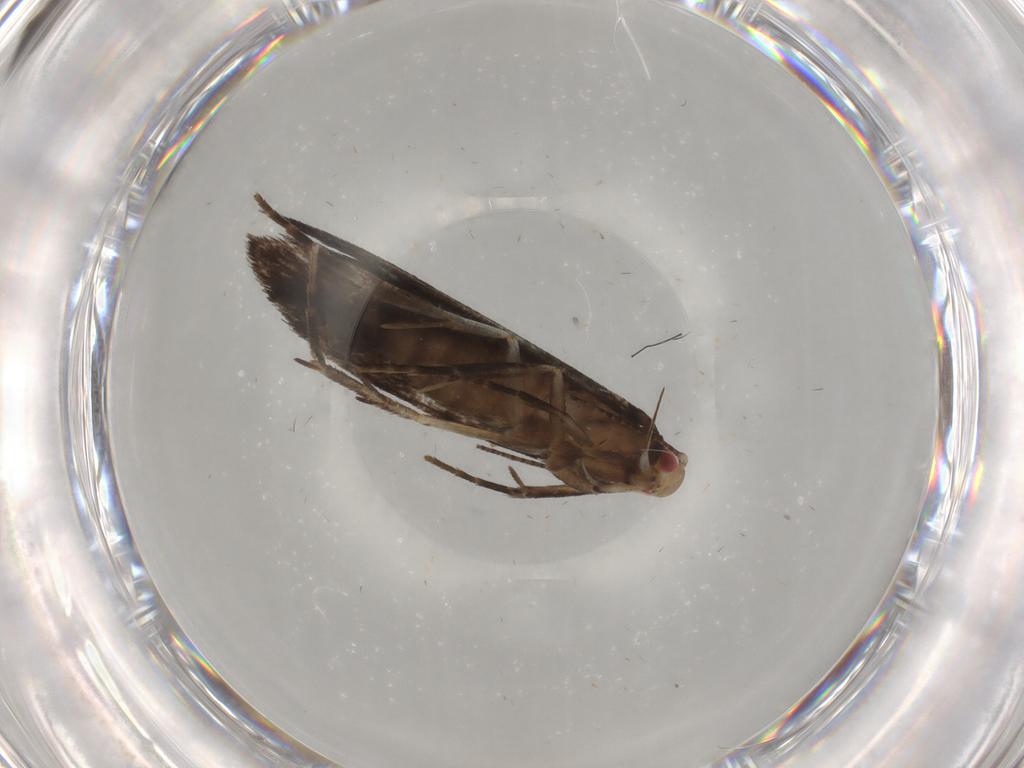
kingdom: Animalia
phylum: Arthropoda
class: Insecta
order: Lepidoptera
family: Gelechiidae
